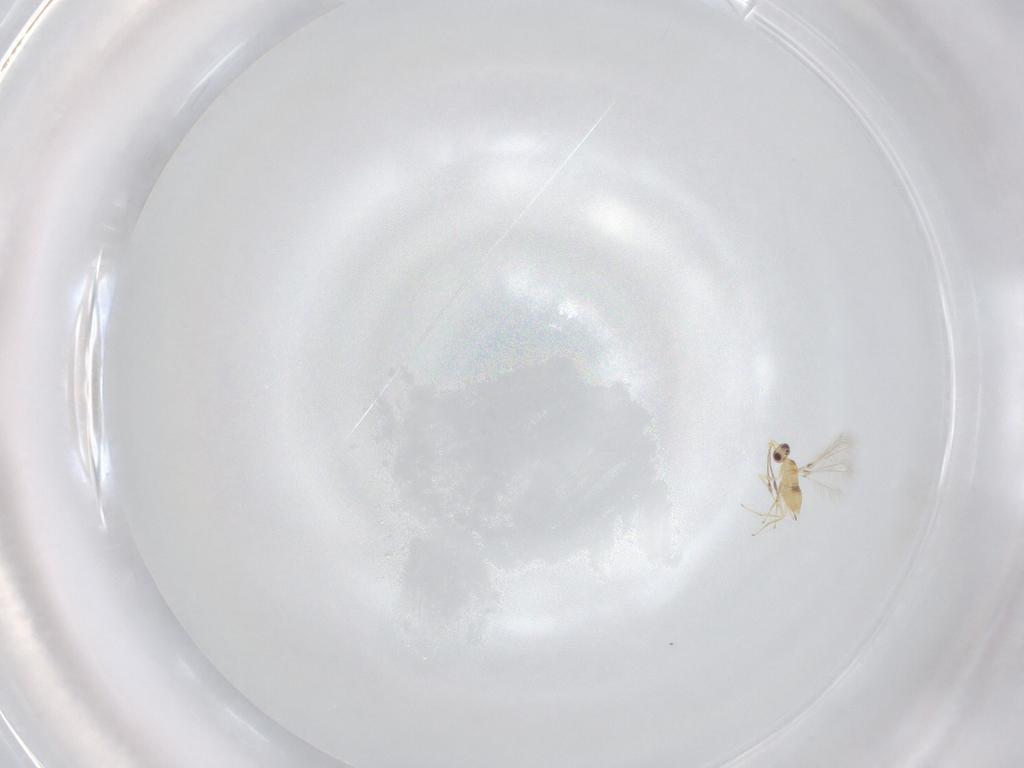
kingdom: Animalia
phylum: Arthropoda
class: Insecta
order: Hymenoptera
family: Mymaridae
